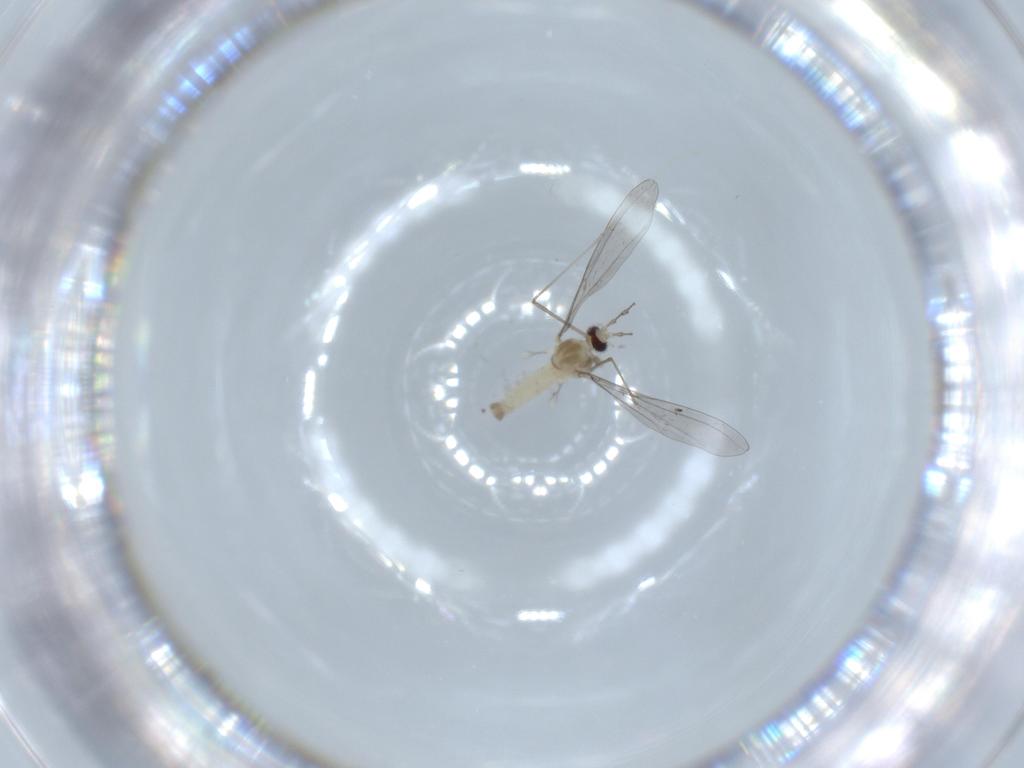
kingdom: Animalia
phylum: Arthropoda
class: Insecta
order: Diptera
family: Cecidomyiidae
